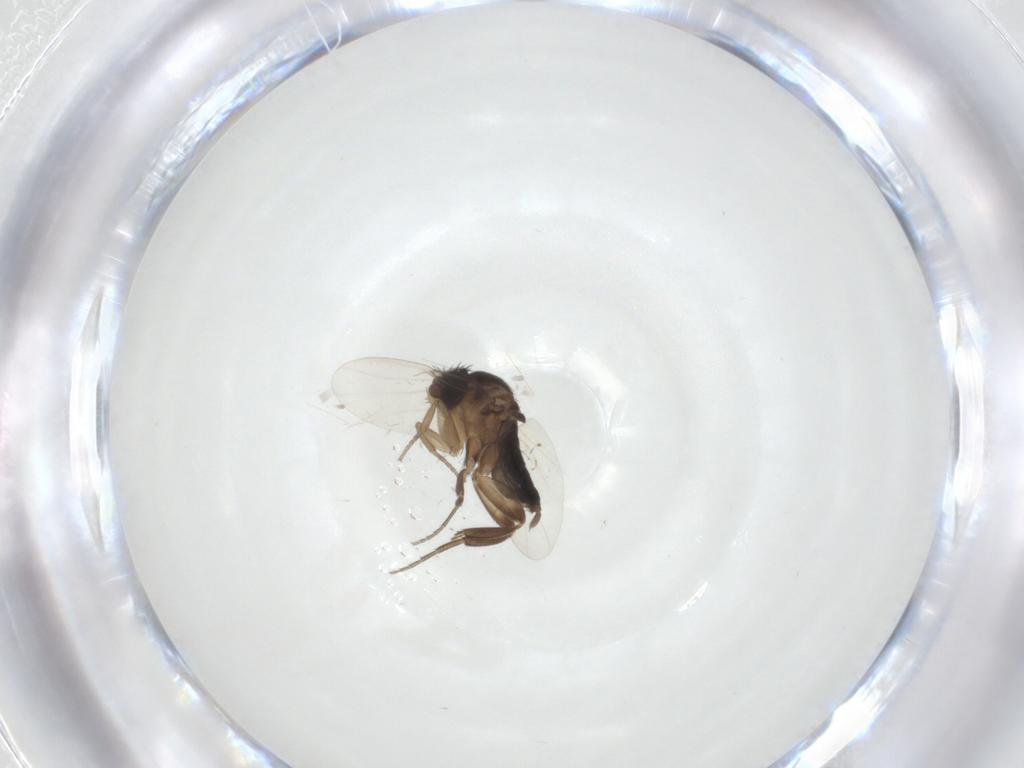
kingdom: Animalia
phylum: Arthropoda
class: Insecta
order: Diptera
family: Phoridae
